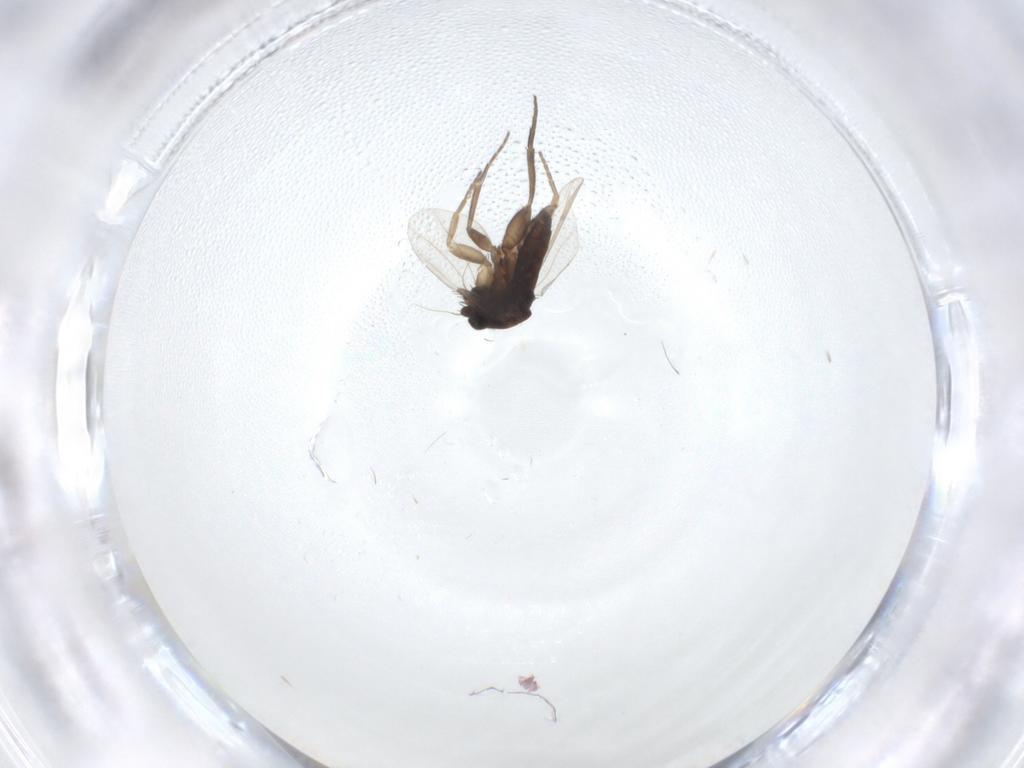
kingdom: Animalia
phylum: Arthropoda
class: Insecta
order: Diptera
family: Phoridae
